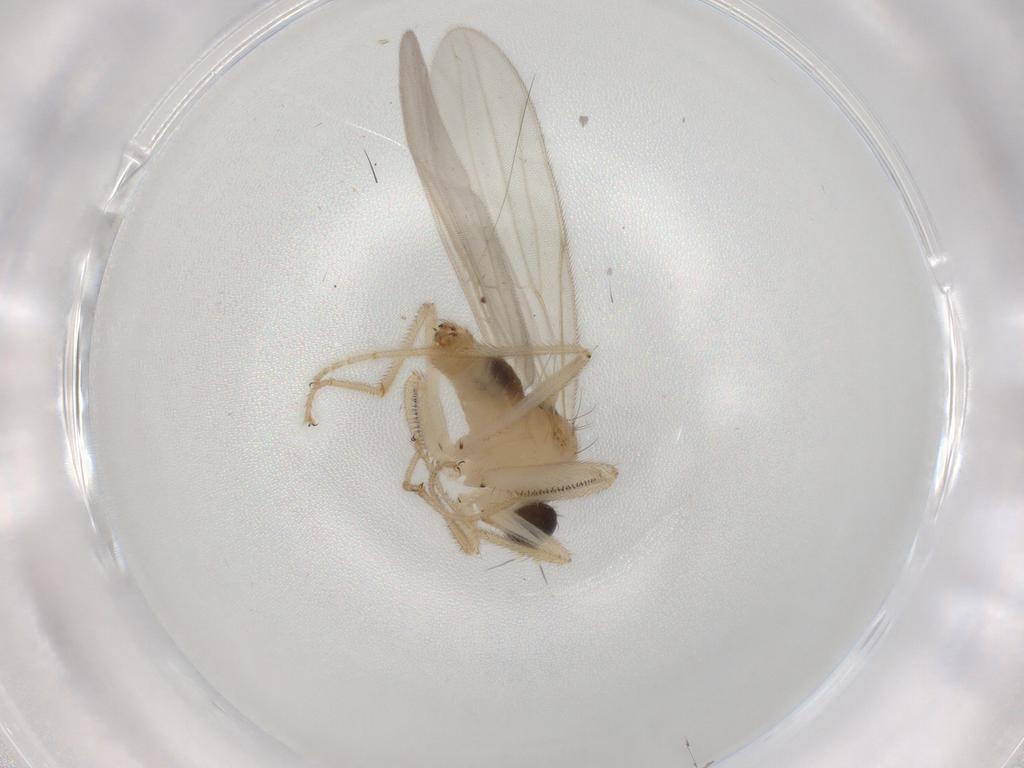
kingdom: Animalia
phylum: Arthropoda
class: Insecta
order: Diptera
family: Hybotidae
